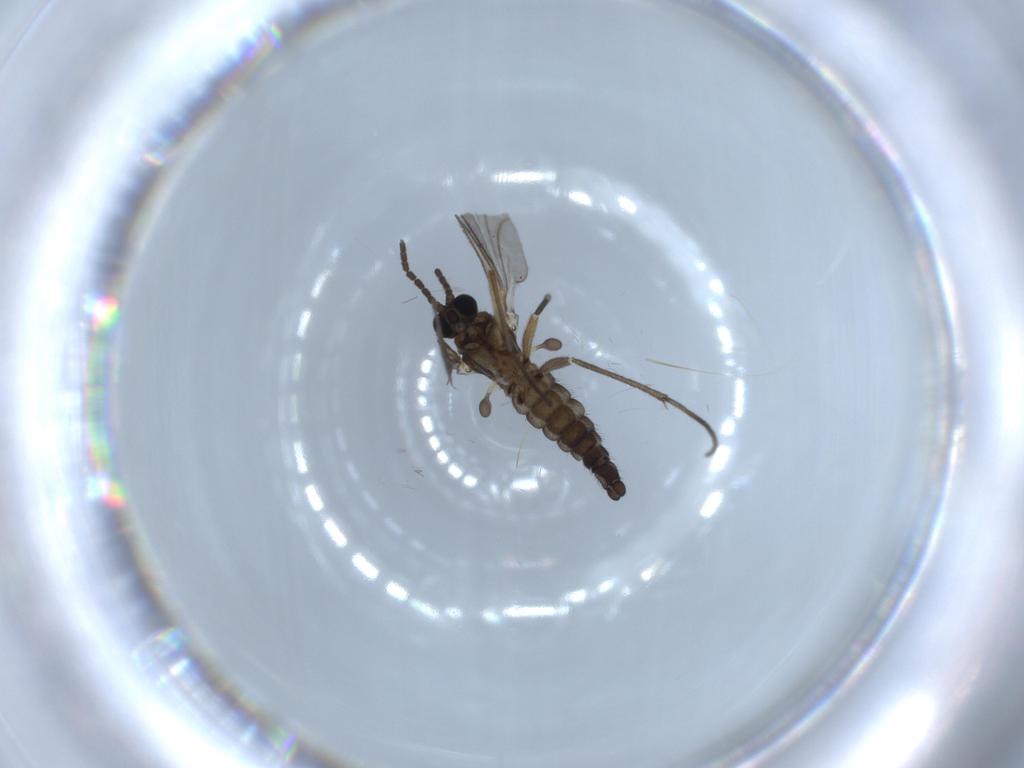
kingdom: Animalia
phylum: Arthropoda
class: Insecta
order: Diptera
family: Sciaridae
